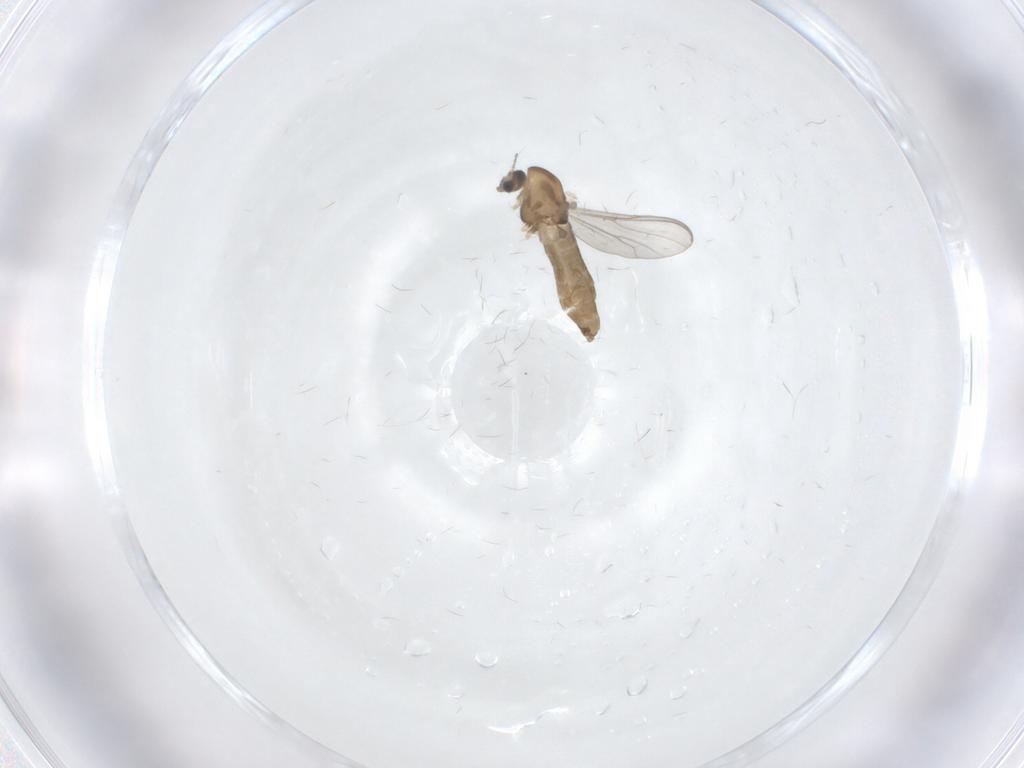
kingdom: Animalia
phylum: Arthropoda
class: Insecta
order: Diptera
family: Chironomidae
